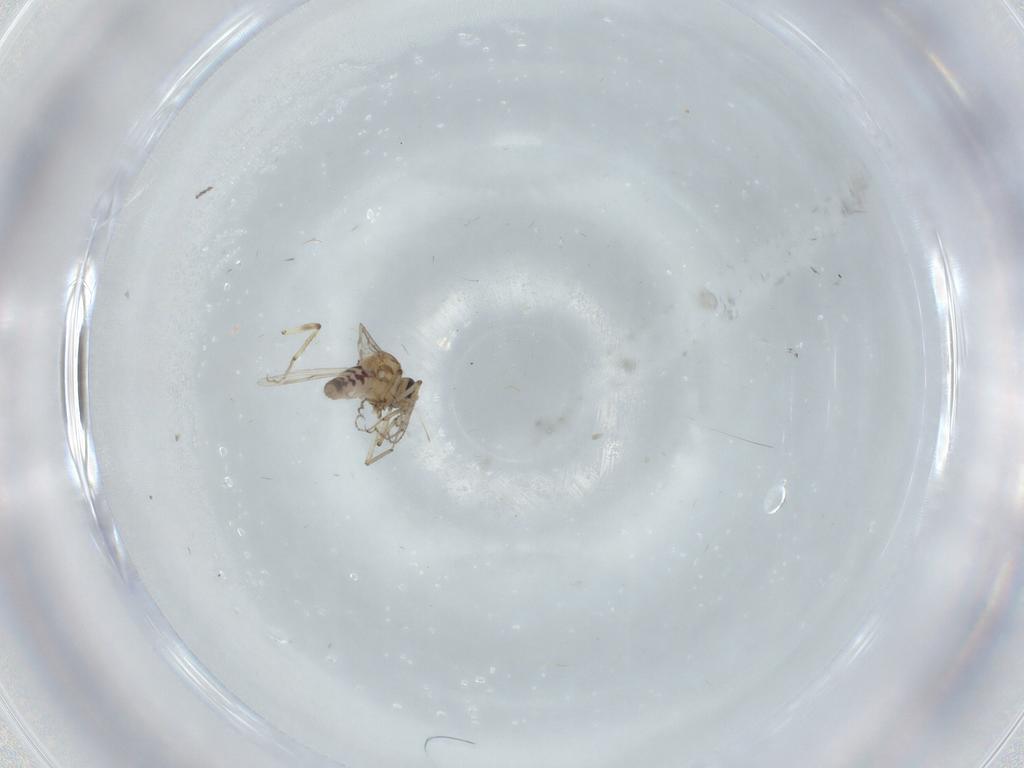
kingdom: Animalia
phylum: Arthropoda
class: Insecta
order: Diptera
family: Ceratopogonidae
